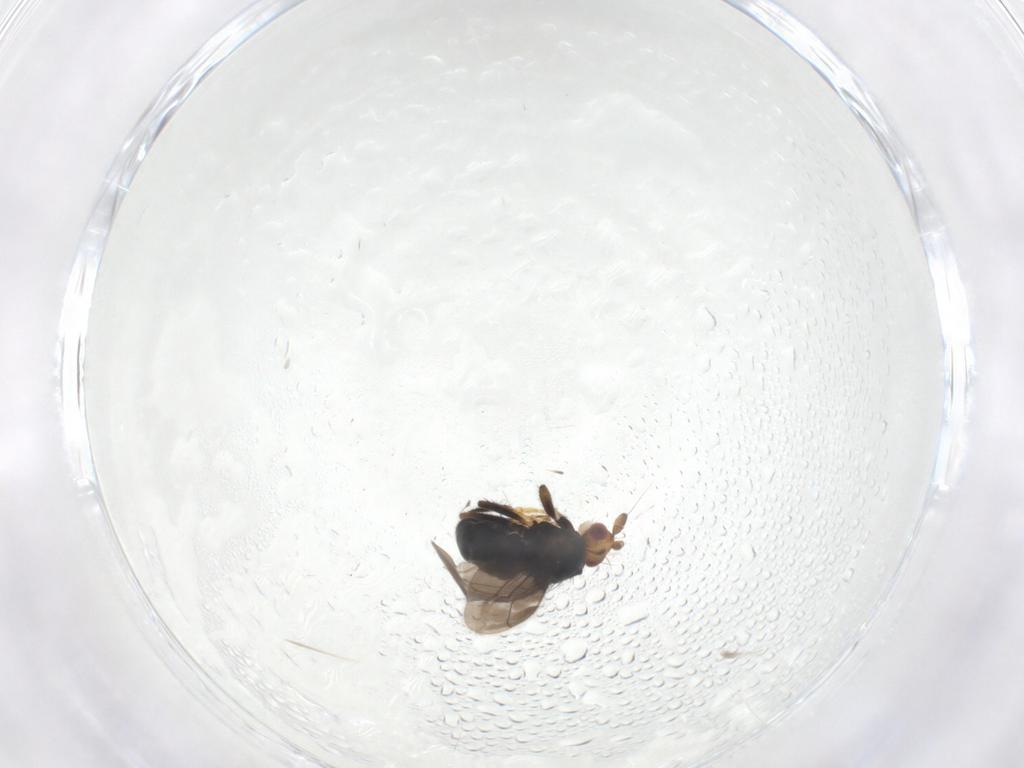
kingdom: Animalia
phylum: Arthropoda
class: Insecta
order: Diptera
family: Sphaeroceridae
